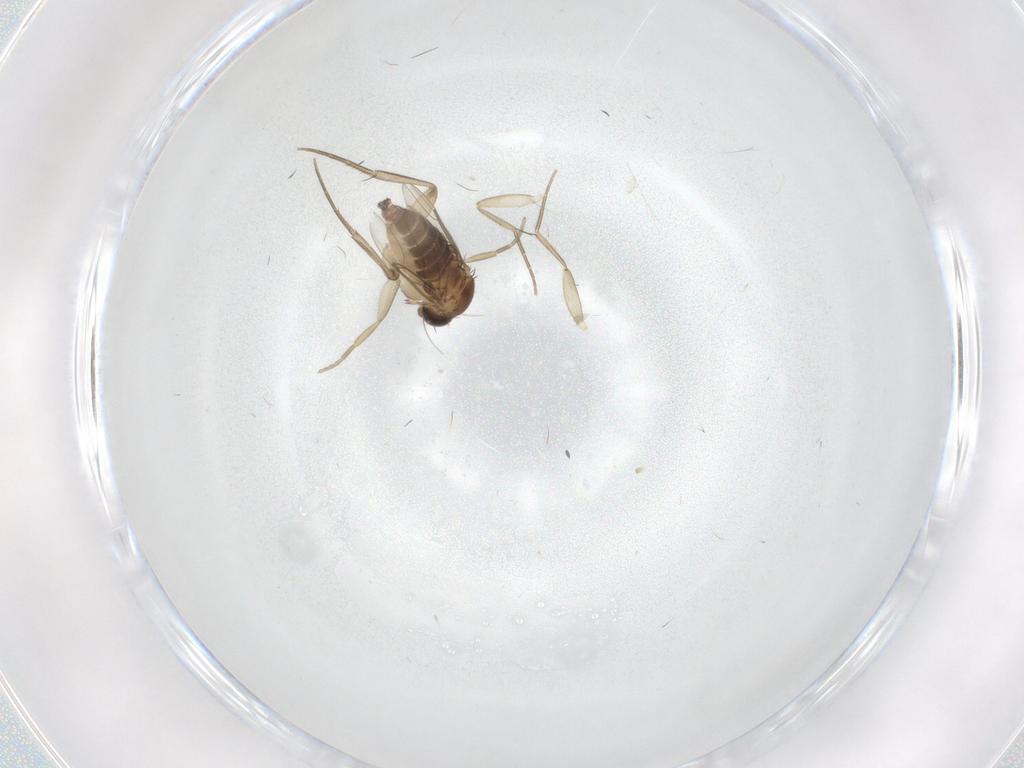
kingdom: Animalia
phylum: Arthropoda
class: Insecta
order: Diptera
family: Phoridae
